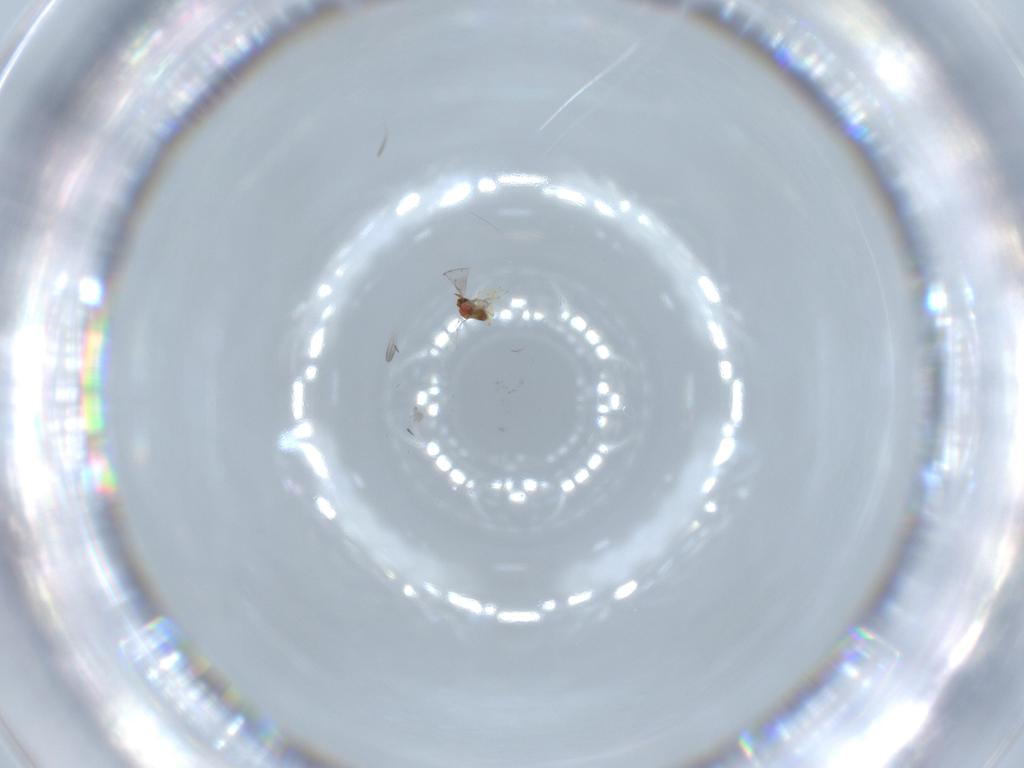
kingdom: Animalia
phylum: Arthropoda
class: Insecta
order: Hymenoptera
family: Trichogrammatidae
